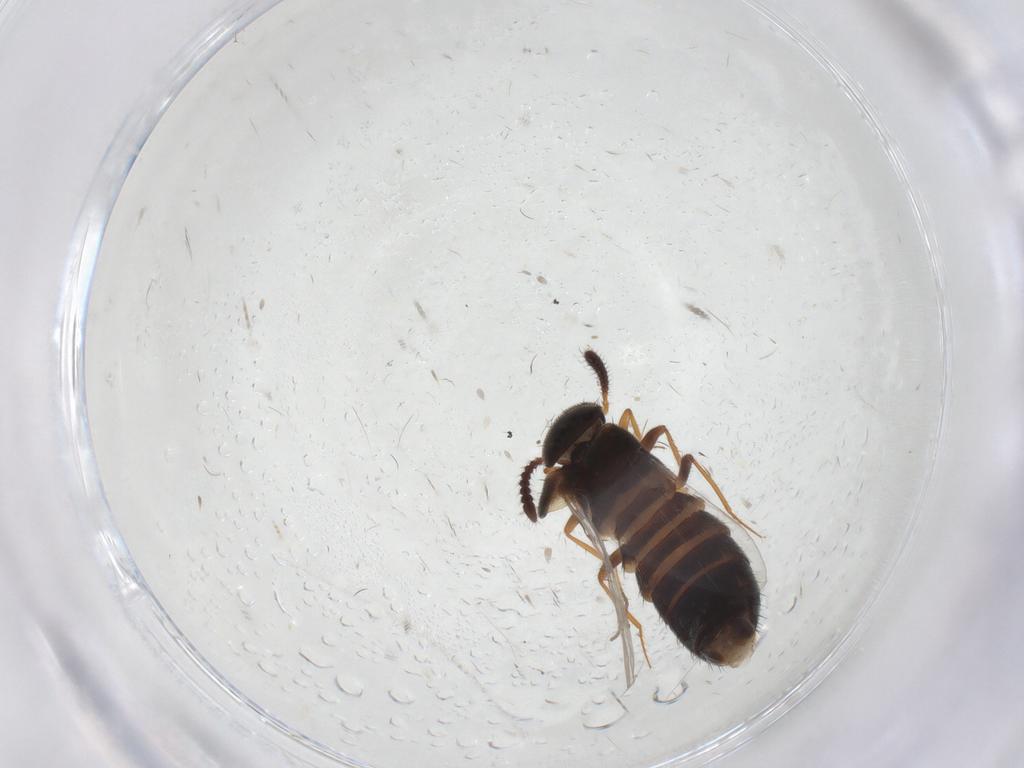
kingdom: Animalia
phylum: Arthropoda
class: Insecta
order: Coleoptera
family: Staphylinidae
